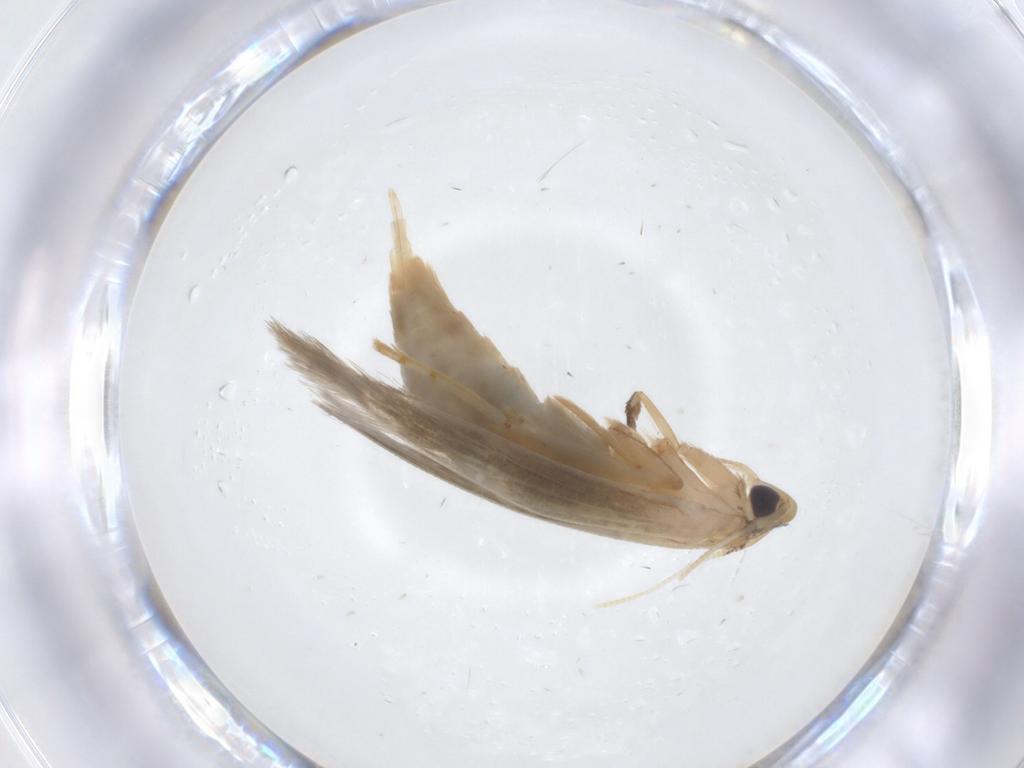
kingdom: Animalia
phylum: Arthropoda
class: Insecta
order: Lepidoptera
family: Tineidae
